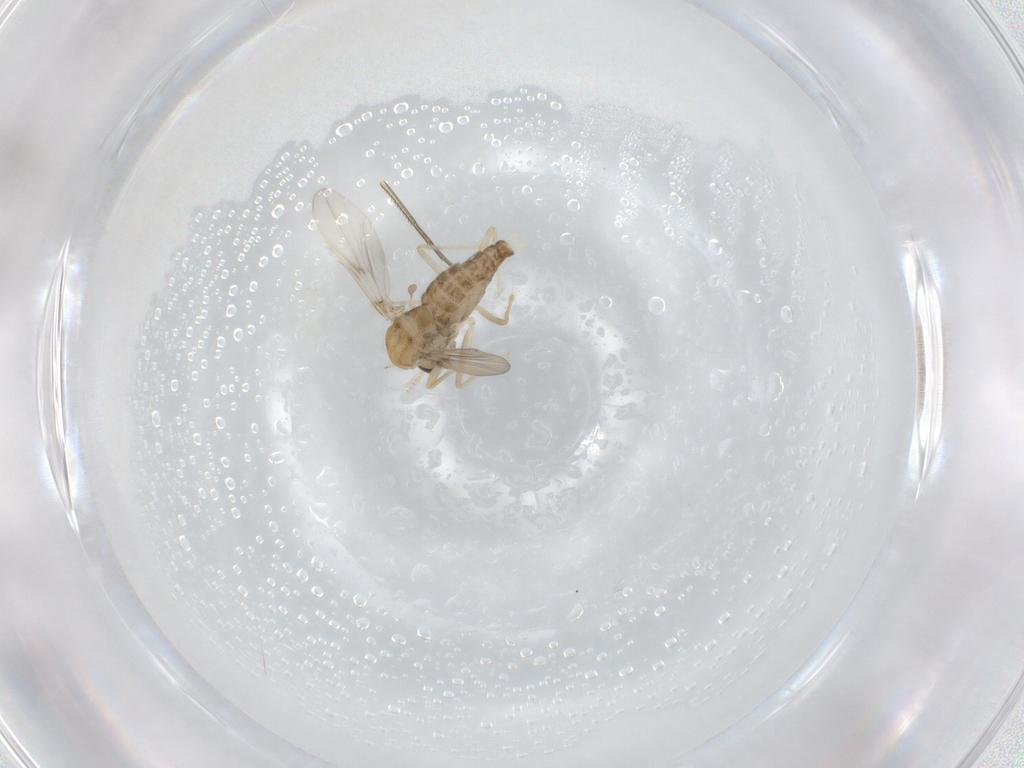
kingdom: Animalia
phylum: Arthropoda
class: Insecta
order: Diptera
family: Chironomidae
